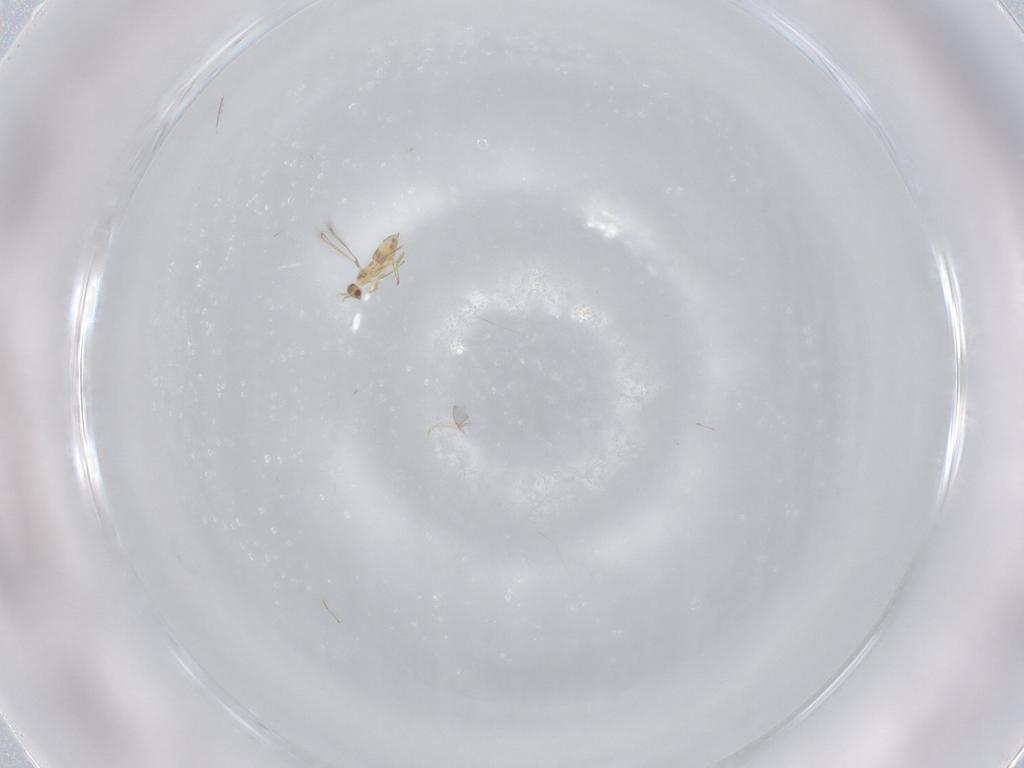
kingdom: Animalia
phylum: Arthropoda
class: Insecta
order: Hymenoptera
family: Mymaridae
